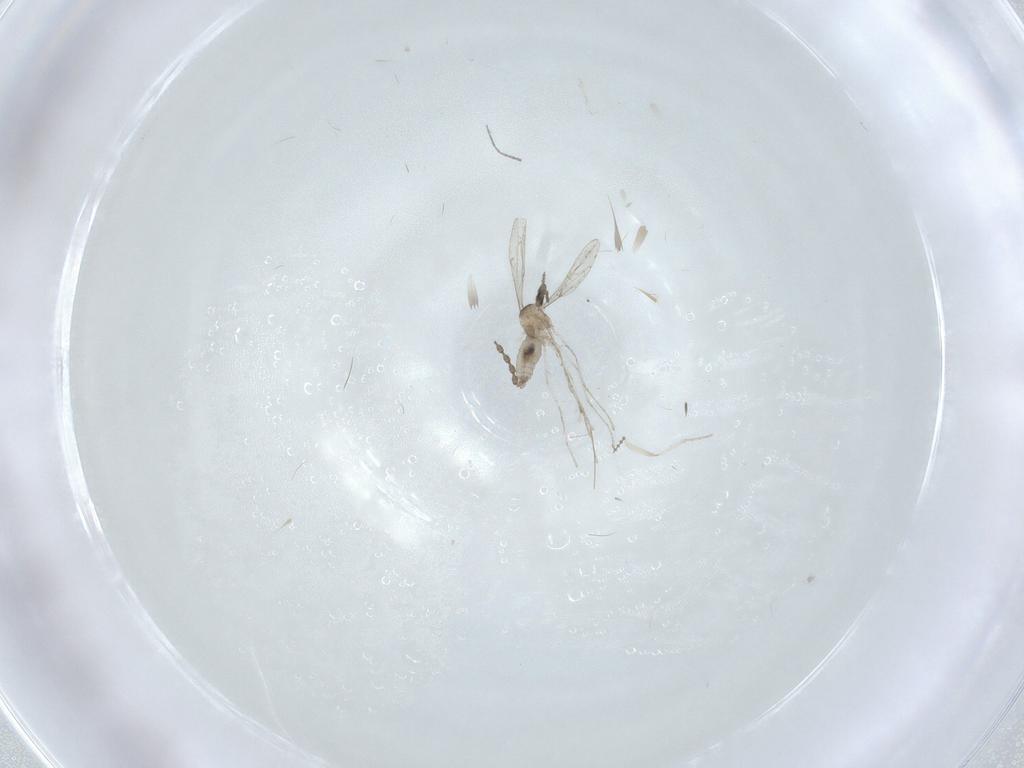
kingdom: Animalia
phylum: Arthropoda
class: Insecta
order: Diptera
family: Cecidomyiidae
